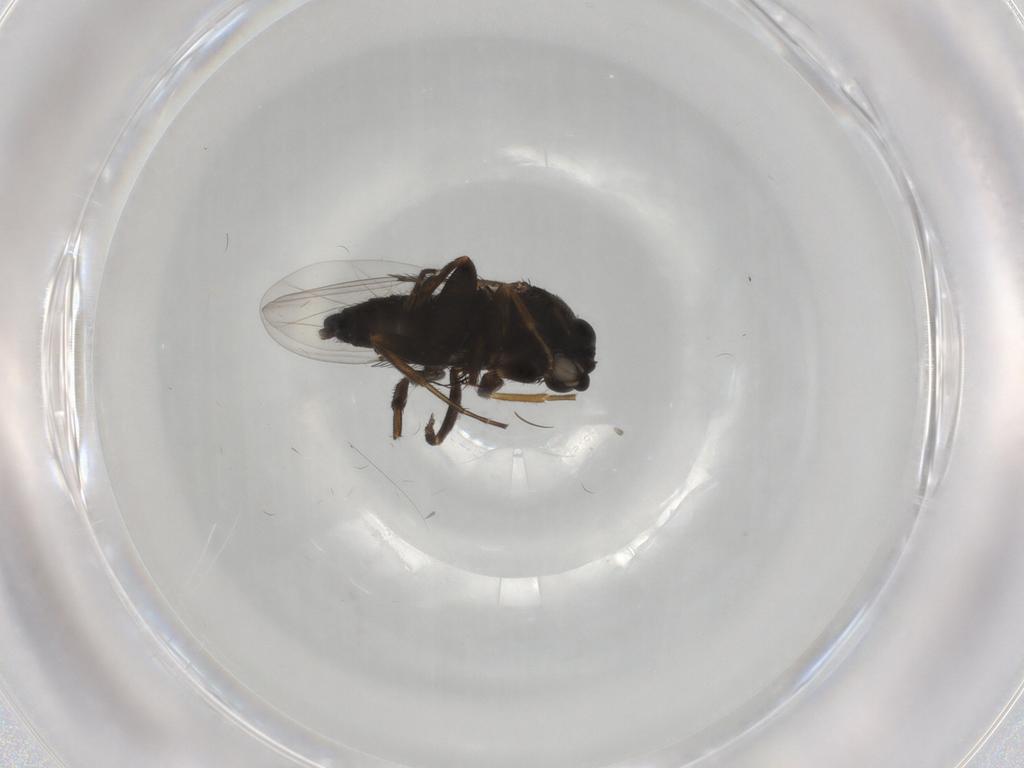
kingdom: Animalia
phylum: Arthropoda
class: Insecta
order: Diptera
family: Phoridae
